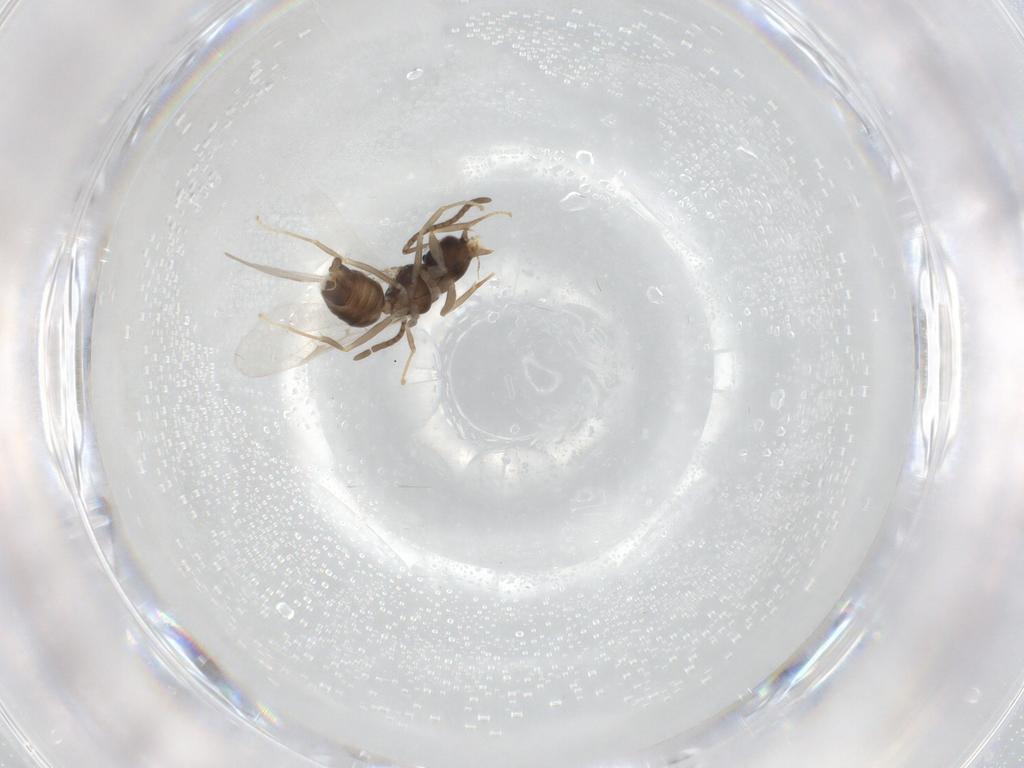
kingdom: Animalia
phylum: Arthropoda
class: Insecta
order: Hymenoptera
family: Formicidae
